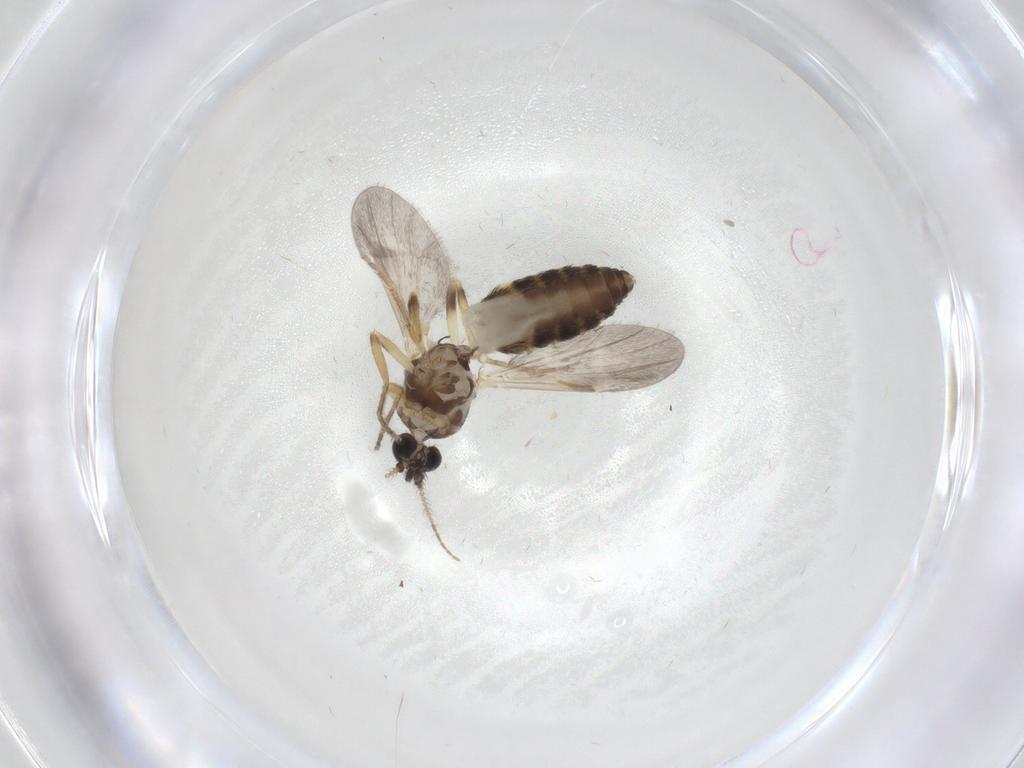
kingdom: Animalia
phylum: Arthropoda
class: Insecta
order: Diptera
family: Ceratopogonidae
